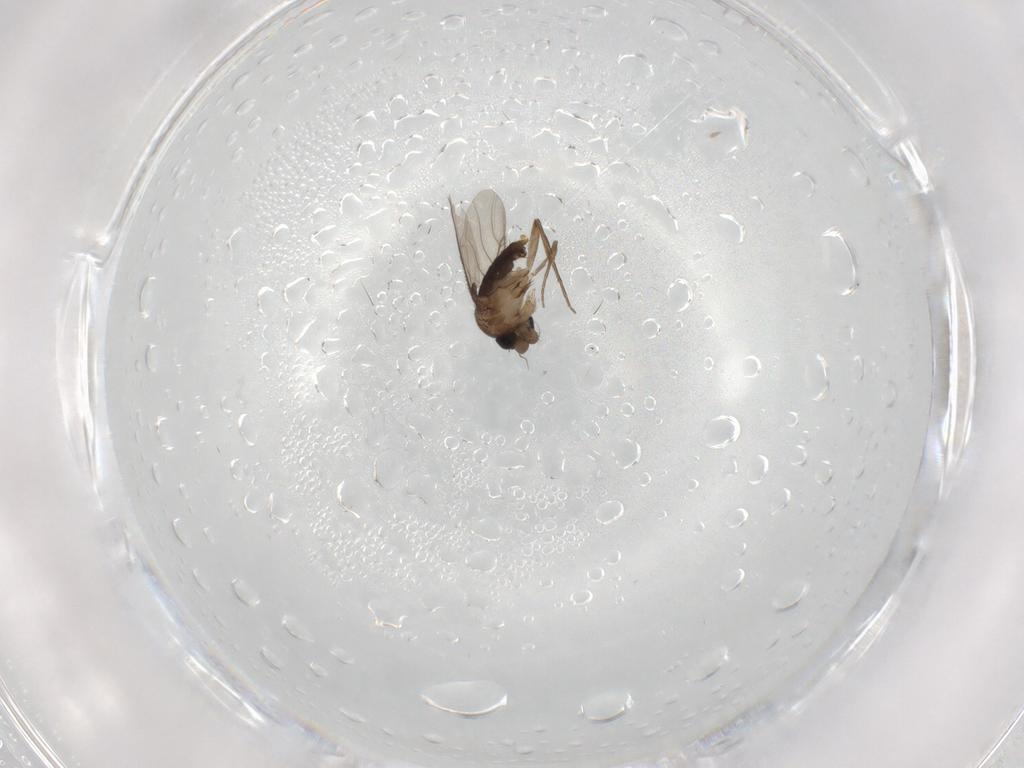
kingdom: Animalia
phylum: Arthropoda
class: Insecta
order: Diptera
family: Phoridae
